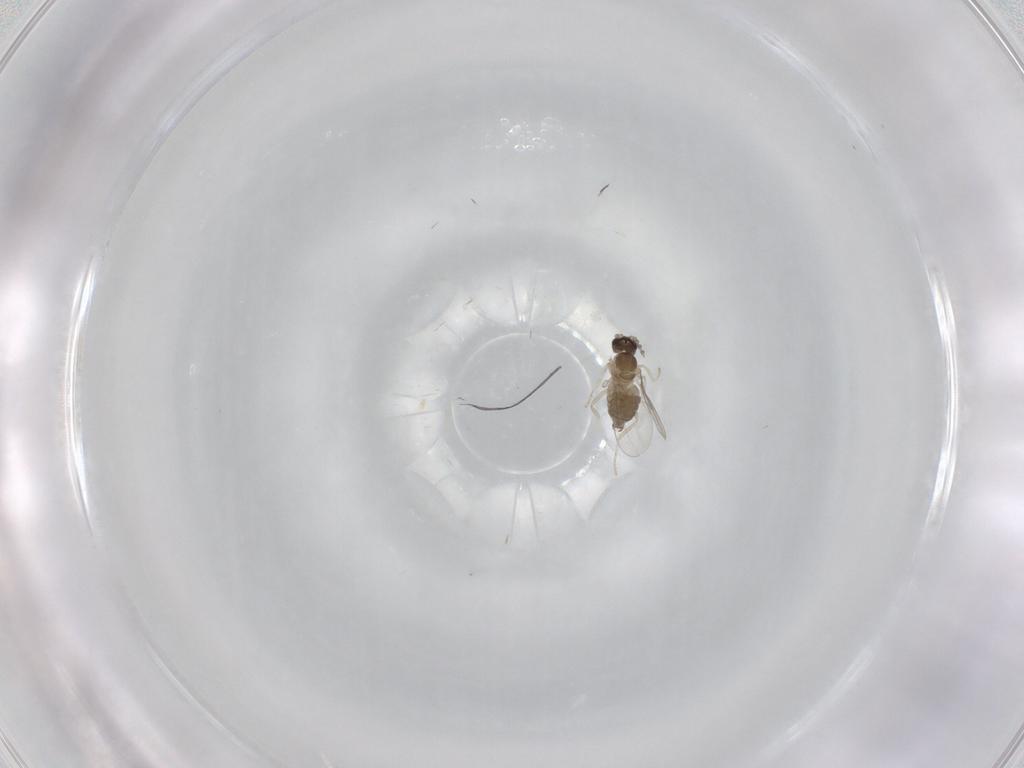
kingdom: Animalia
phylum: Arthropoda
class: Insecta
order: Diptera
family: Cecidomyiidae
